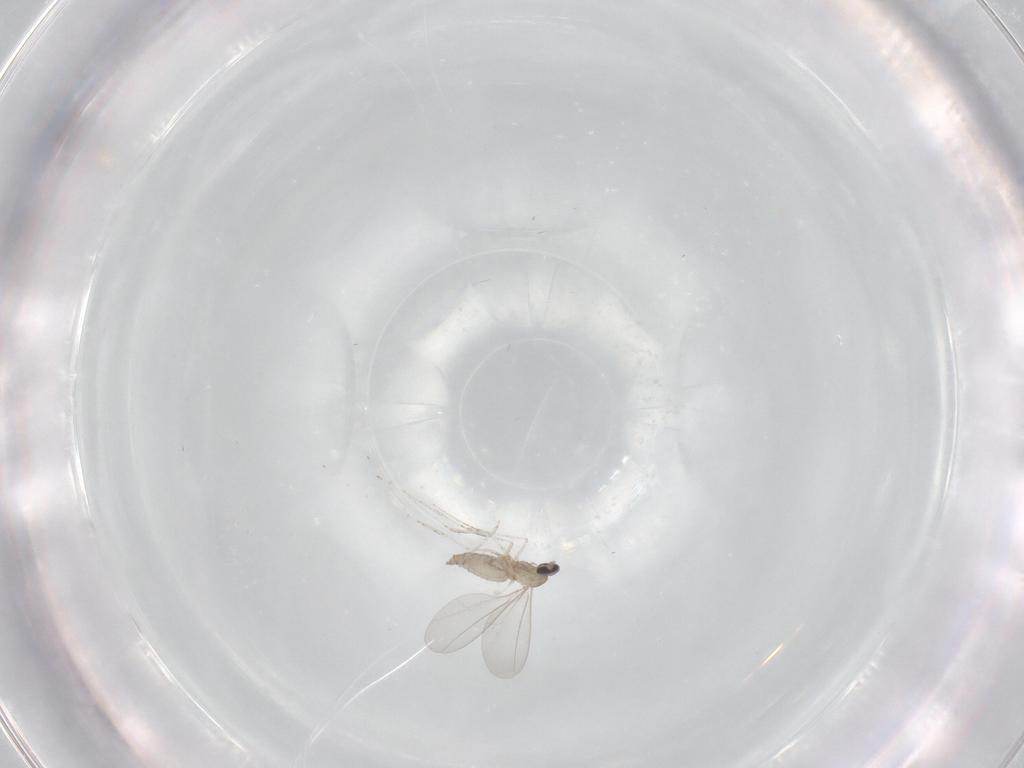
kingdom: Animalia
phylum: Arthropoda
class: Insecta
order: Diptera
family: Cecidomyiidae
